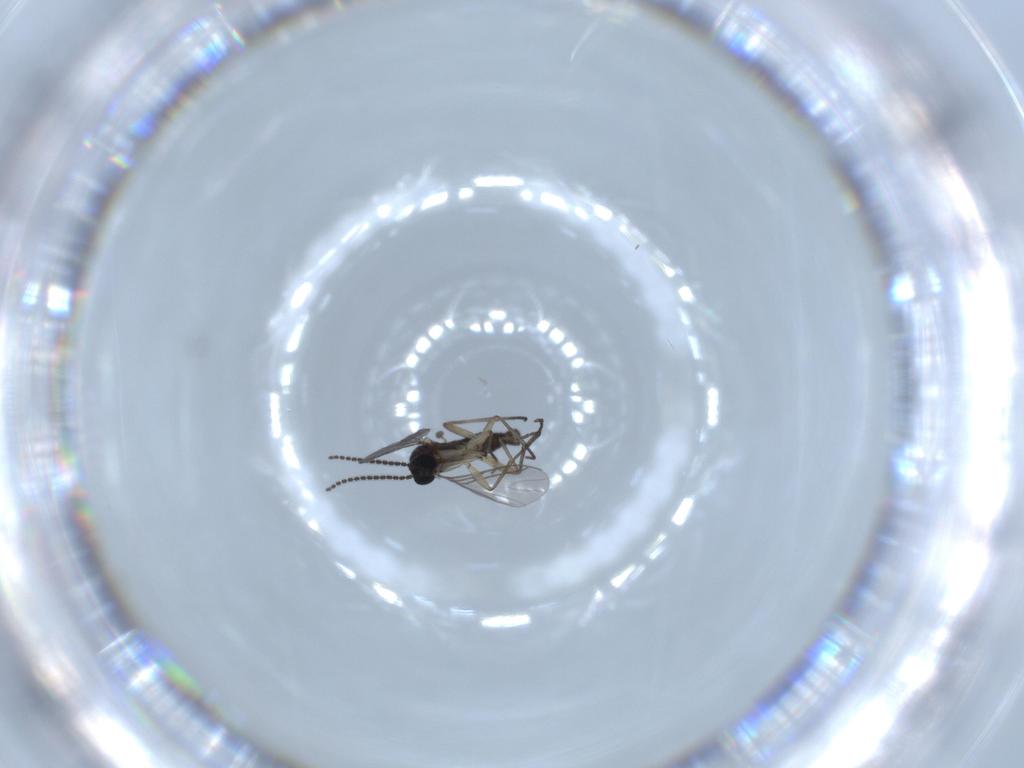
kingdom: Animalia
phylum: Arthropoda
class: Insecta
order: Diptera
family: Sciaridae
